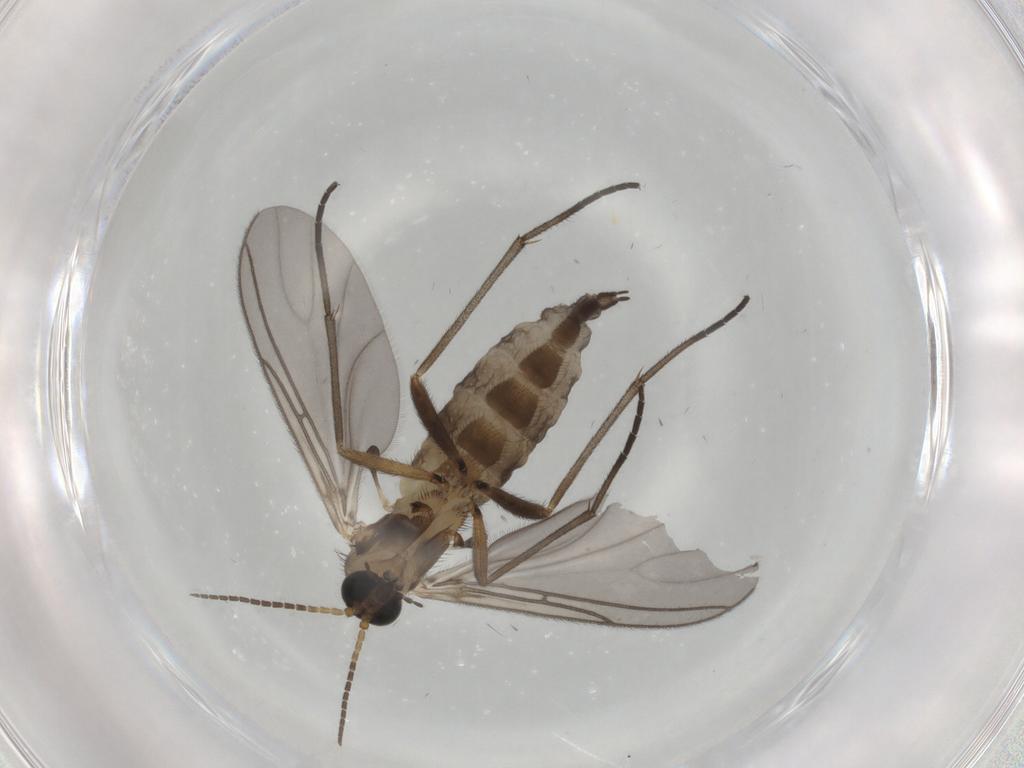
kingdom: Animalia
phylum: Arthropoda
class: Insecta
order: Diptera
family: Sciaridae
